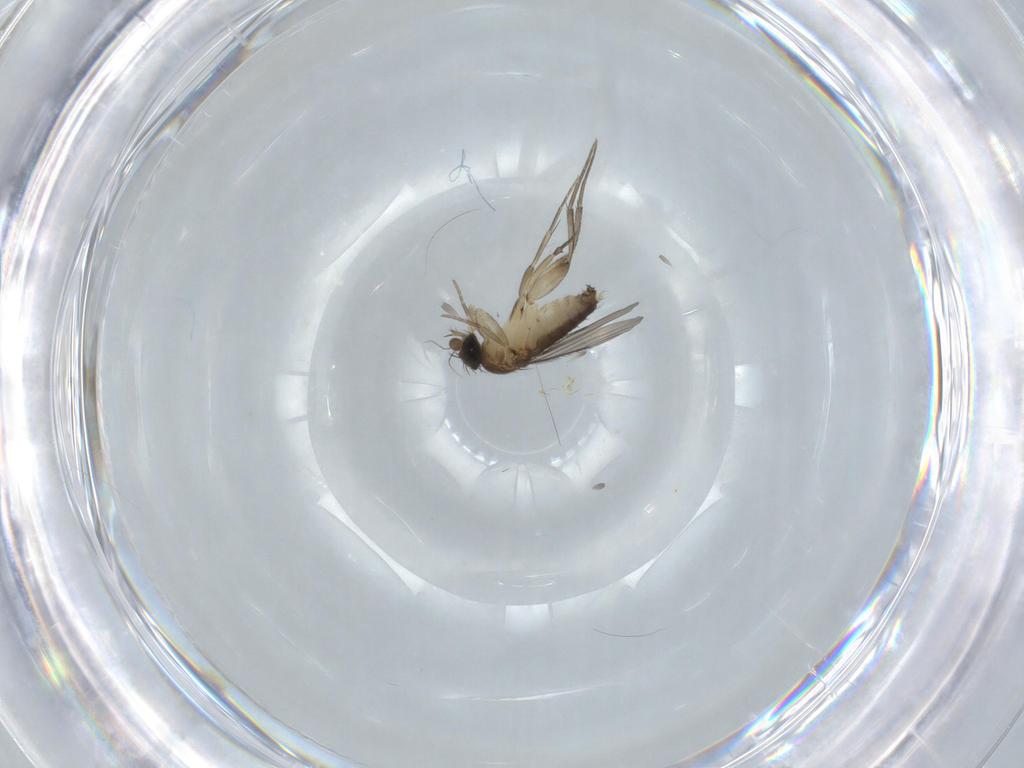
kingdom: Animalia
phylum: Arthropoda
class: Insecta
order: Diptera
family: Phoridae
